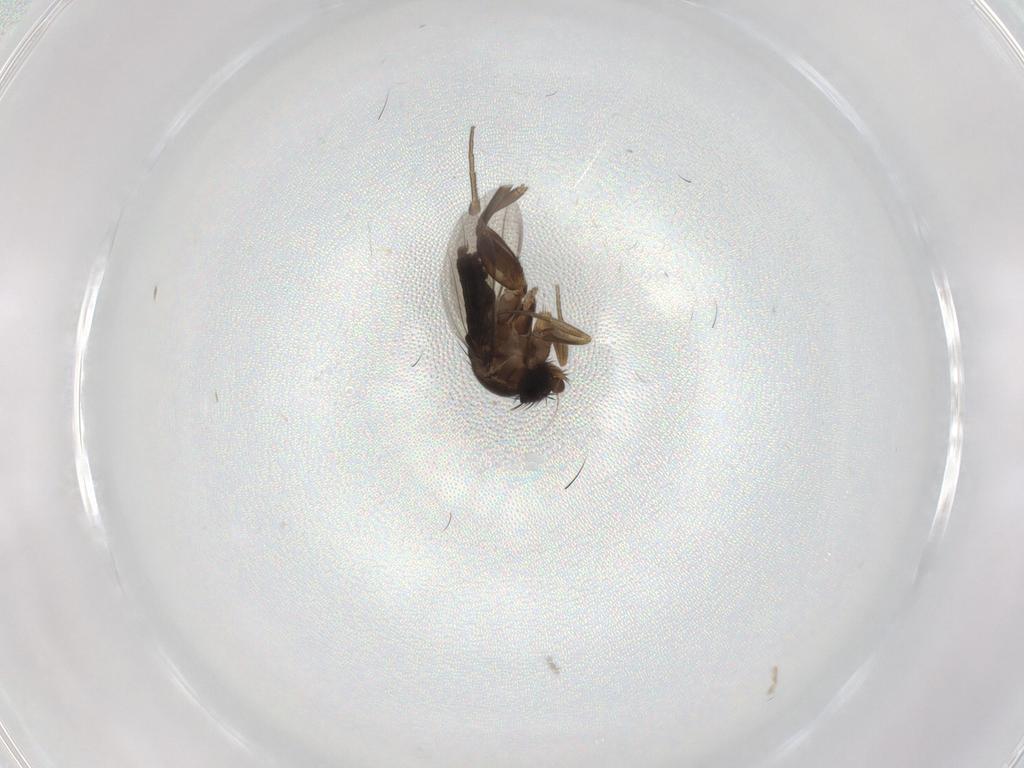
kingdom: Animalia
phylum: Arthropoda
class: Insecta
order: Diptera
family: Phoridae
